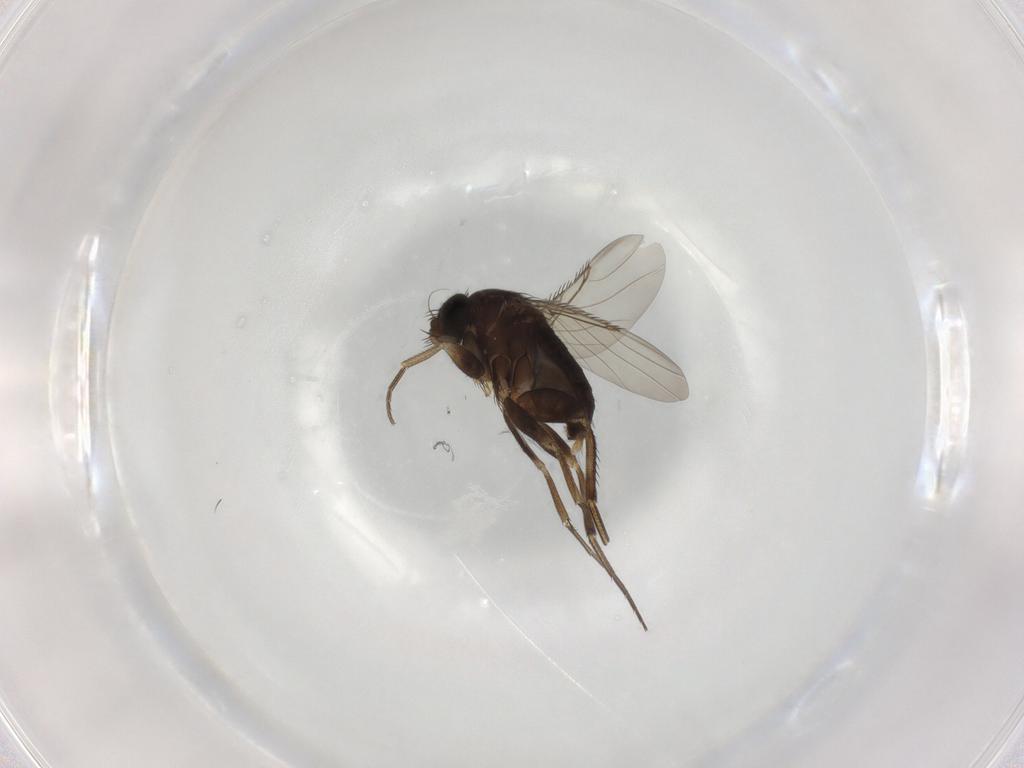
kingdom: Animalia
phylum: Arthropoda
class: Insecta
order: Diptera
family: Phoridae
